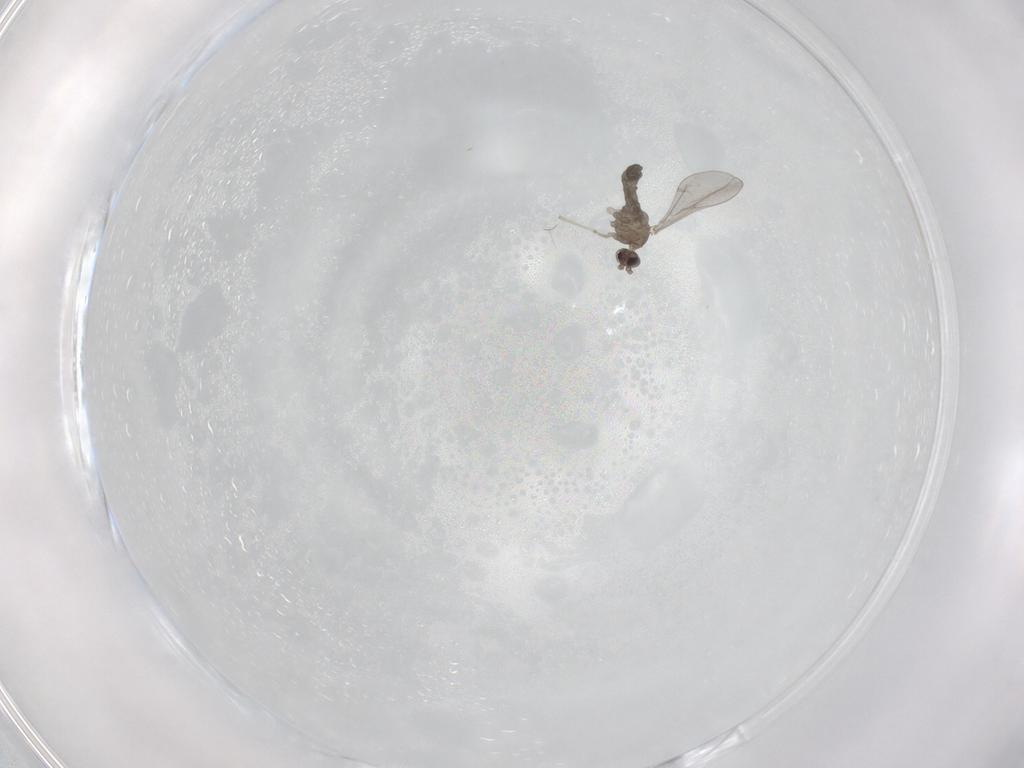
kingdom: Animalia
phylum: Arthropoda
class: Insecta
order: Diptera
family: Cecidomyiidae
